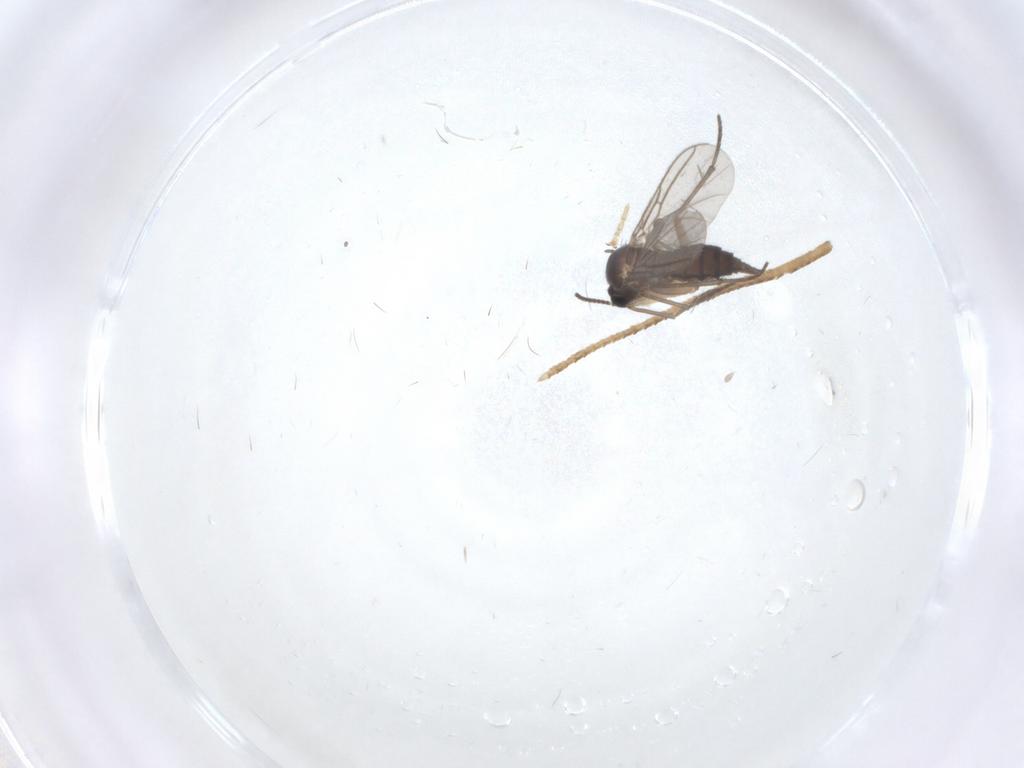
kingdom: Animalia
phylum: Arthropoda
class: Insecta
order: Diptera
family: Sciaridae
